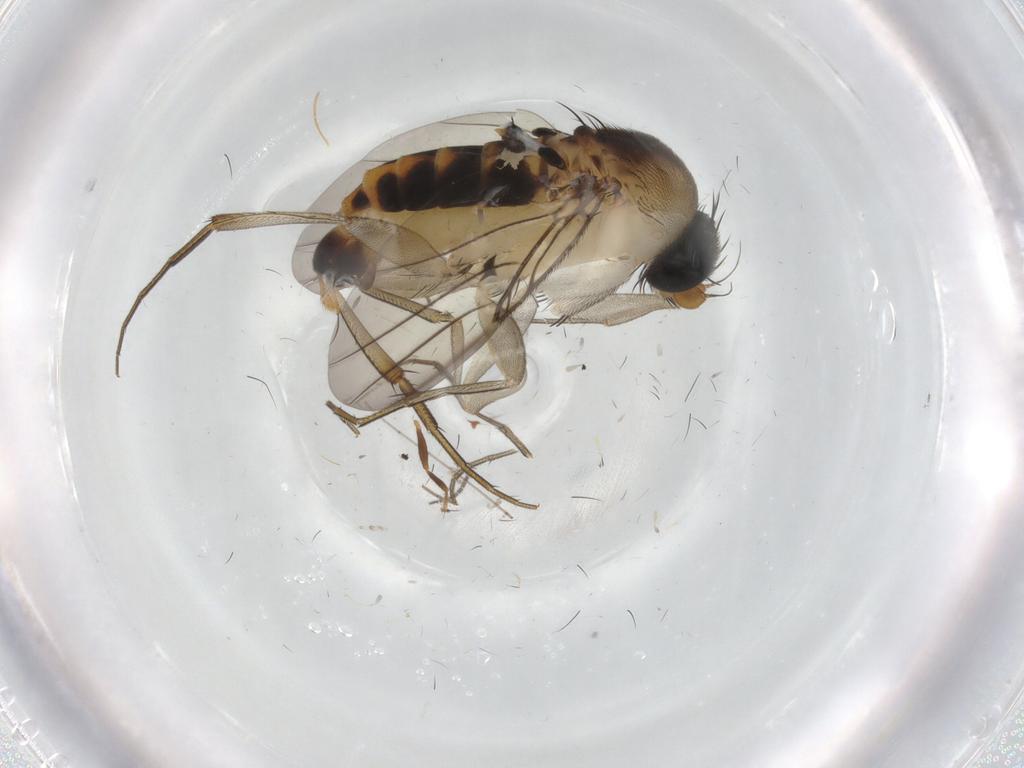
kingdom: Animalia
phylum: Arthropoda
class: Insecta
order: Diptera
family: Phoridae
